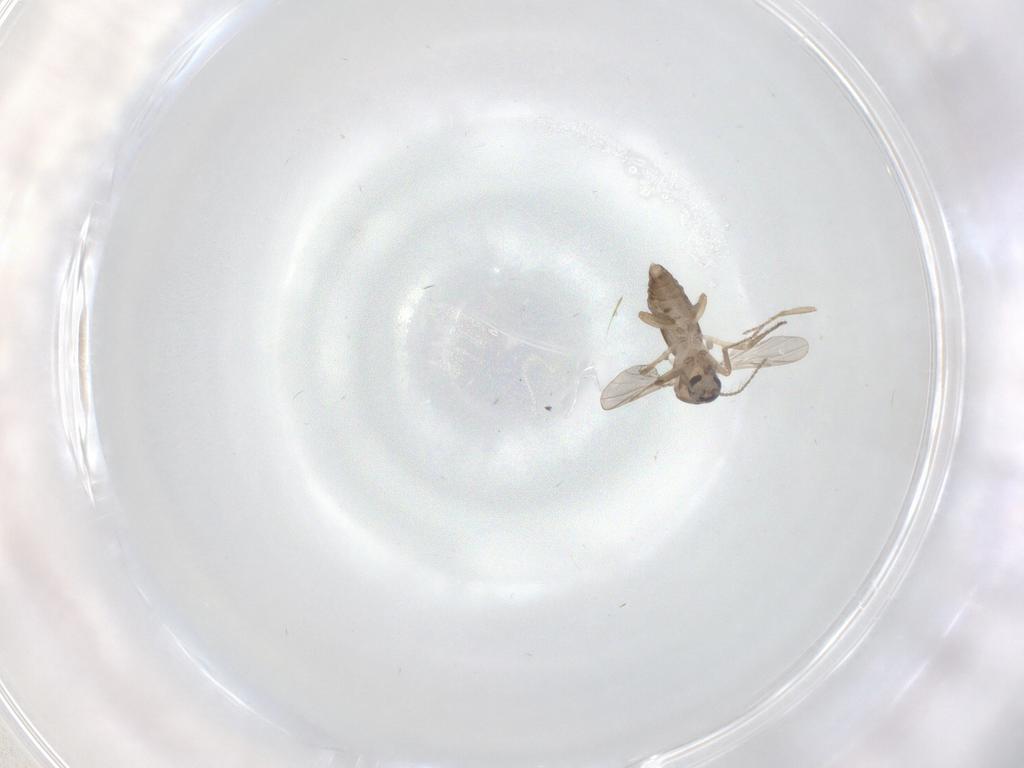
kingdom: Animalia
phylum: Arthropoda
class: Insecta
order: Diptera
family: Ceratopogonidae
